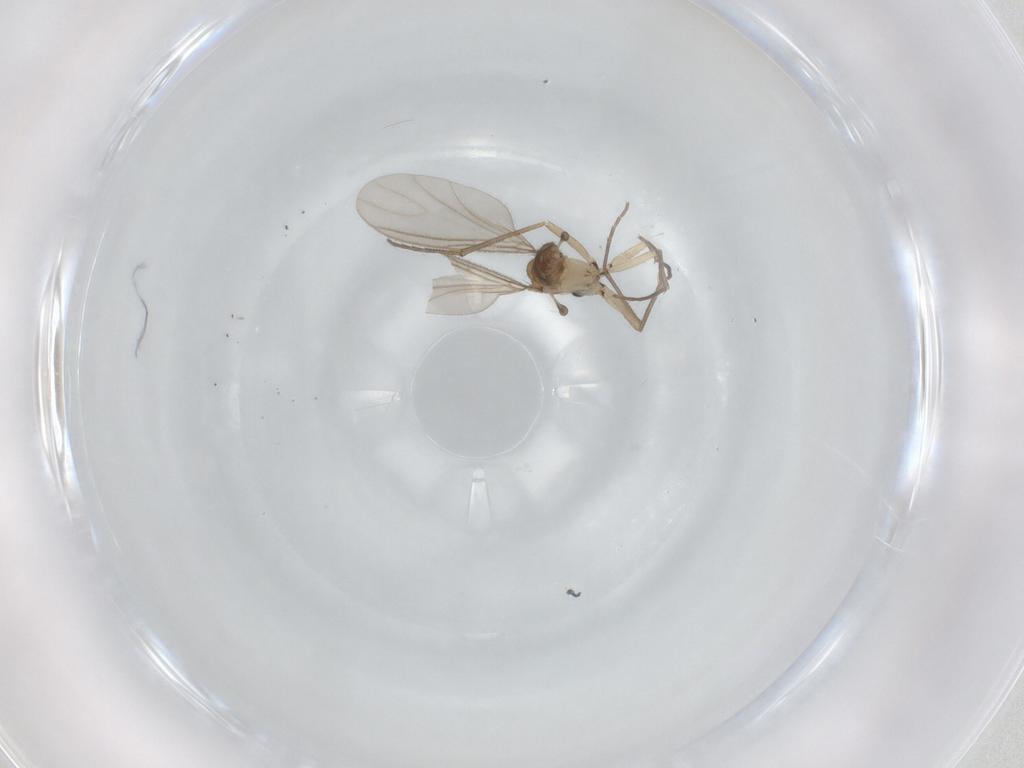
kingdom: Animalia
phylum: Arthropoda
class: Insecta
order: Diptera
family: Sciaridae
